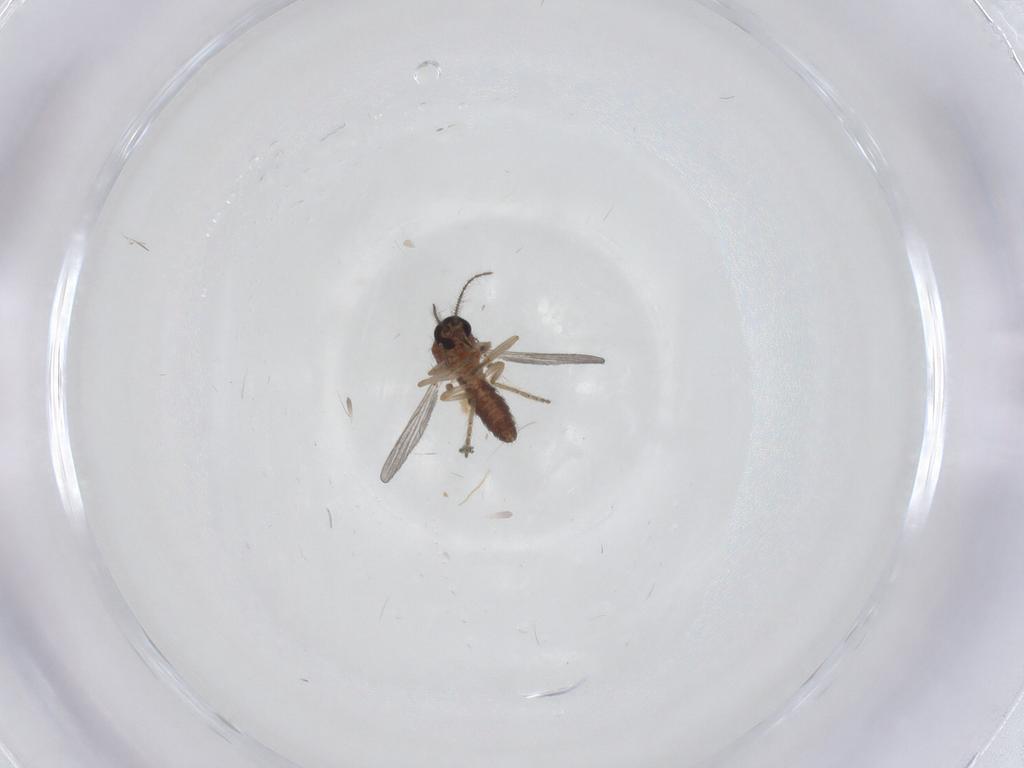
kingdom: Animalia
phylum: Arthropoda
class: Insecta
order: Diptera
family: Ceratopogonidae
